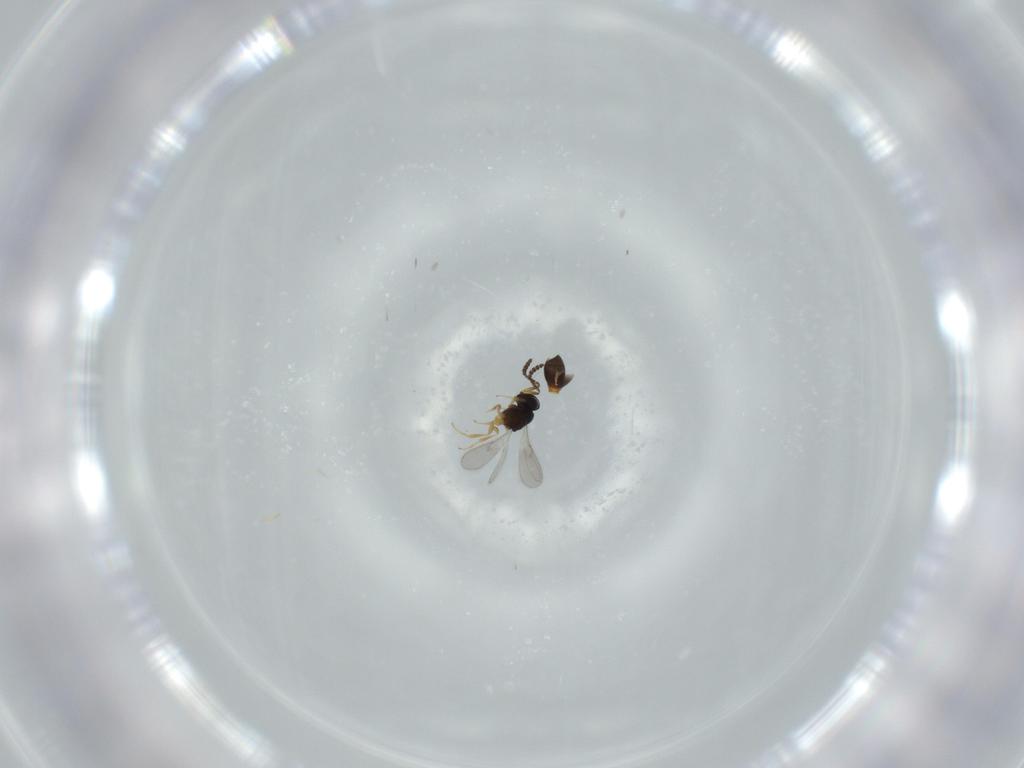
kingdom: Animalia
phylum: Arthropoda
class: Insecta
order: Hymenoptera
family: Scelionidae
